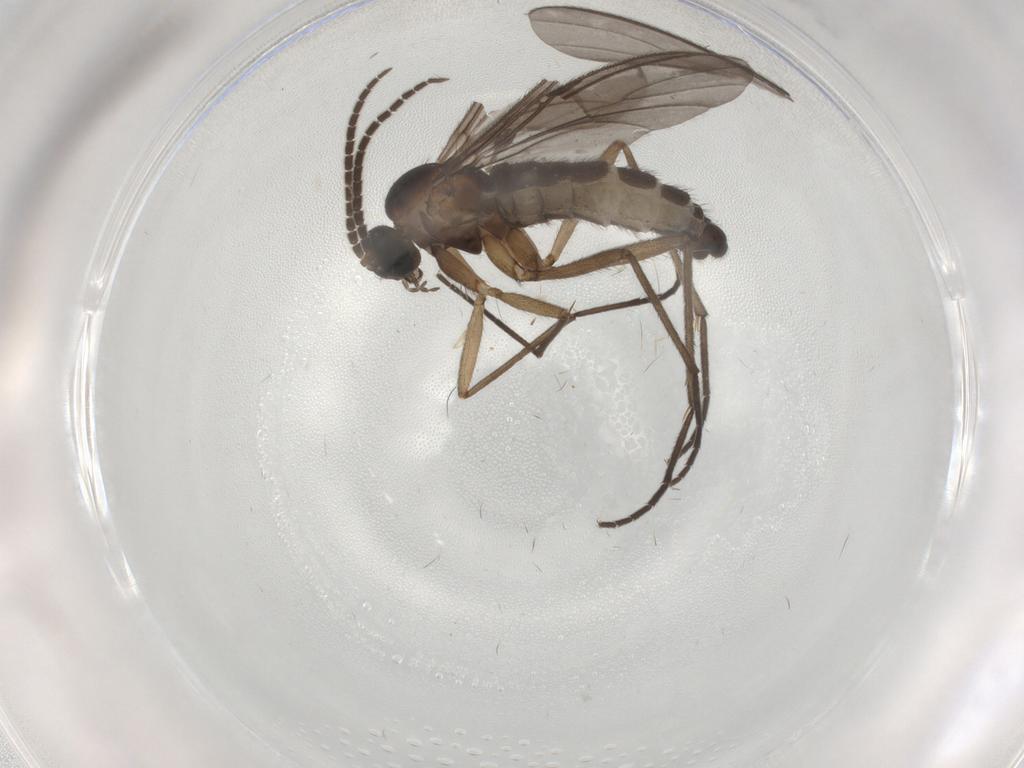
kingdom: Animalia
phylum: Arthropoda
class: Insecta
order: Diptera
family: Sciaridae
